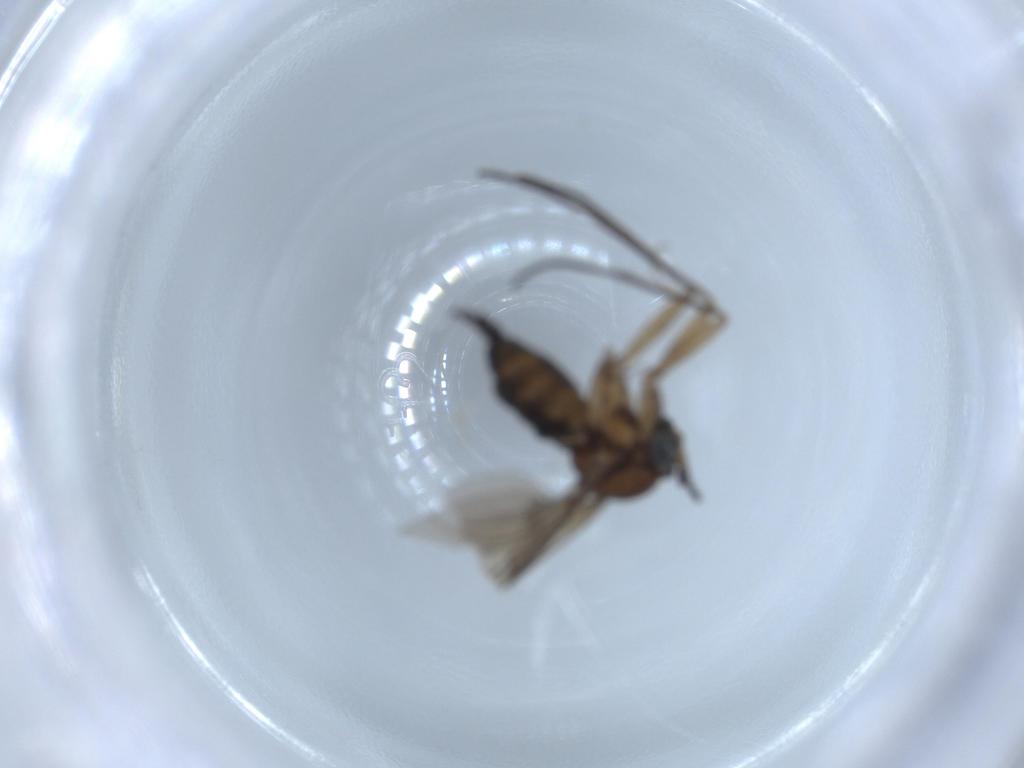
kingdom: Animalia
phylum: Arthropoda
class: Insecta
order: Diptera
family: Sciaridae
